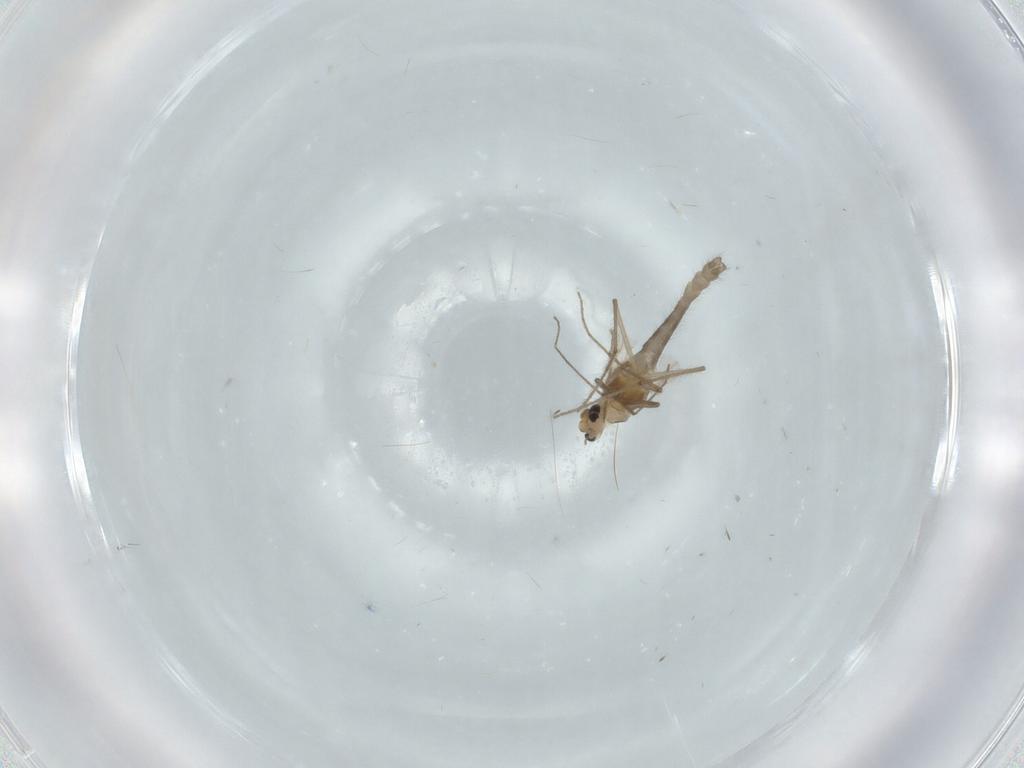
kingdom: Animalia
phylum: Arthropoda
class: Insecta
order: Diptera
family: Chironomidae
